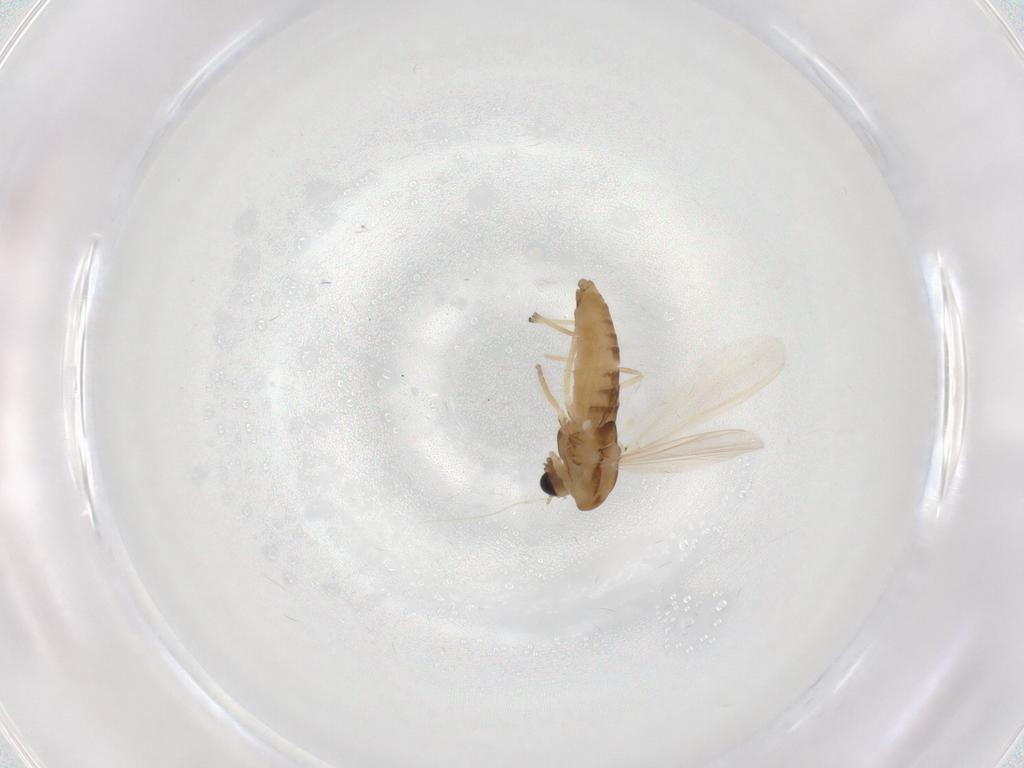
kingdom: Animalia
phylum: Arthropoda
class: Insecta
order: Diptera
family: Chironomidae
